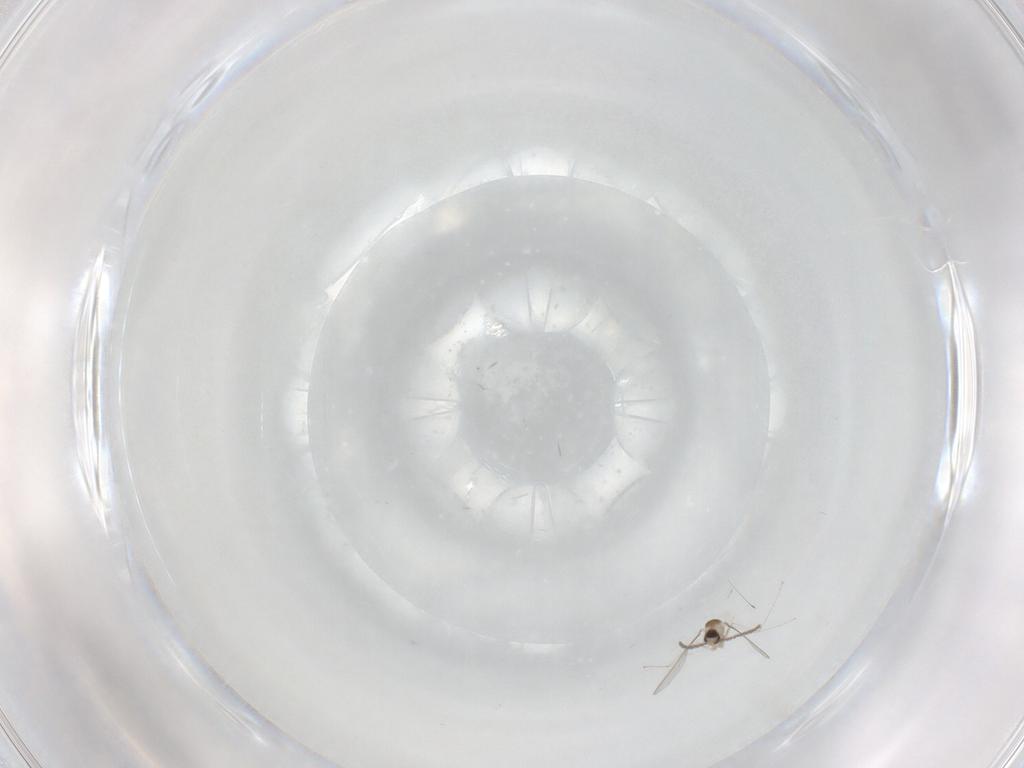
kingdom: Animalia
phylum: Arthropoda
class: Insecta
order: Diptera
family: Cecidomyiidae
